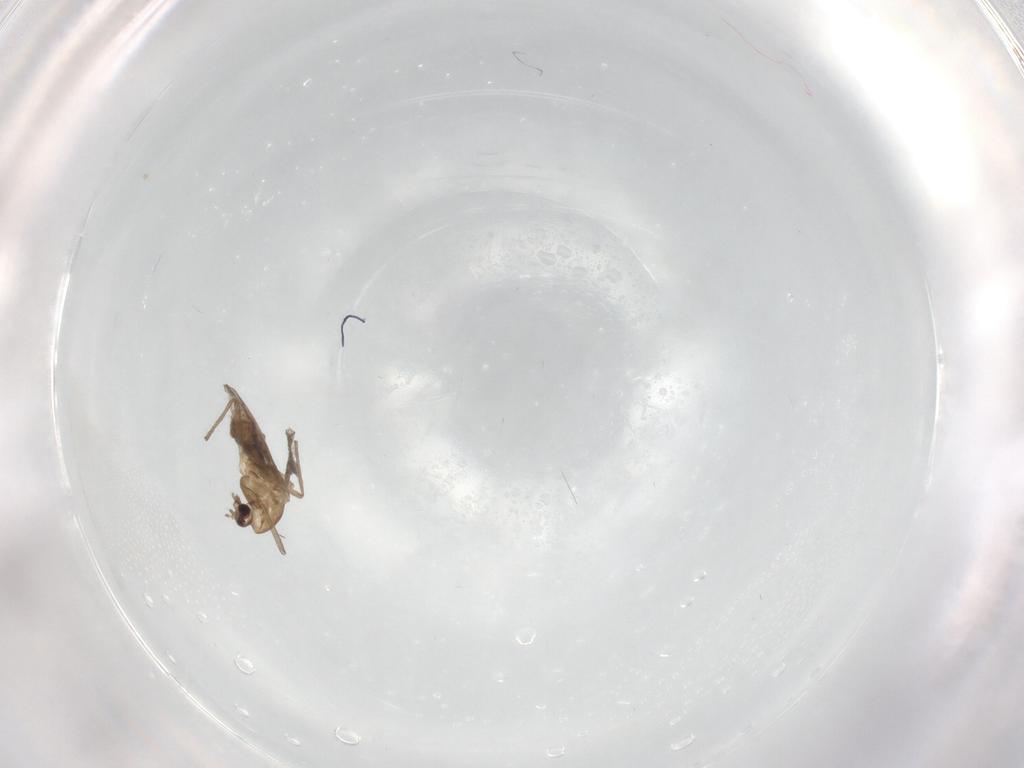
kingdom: Animalia
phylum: Arthropoda
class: Insecta
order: Diptera
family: Chironomidae
